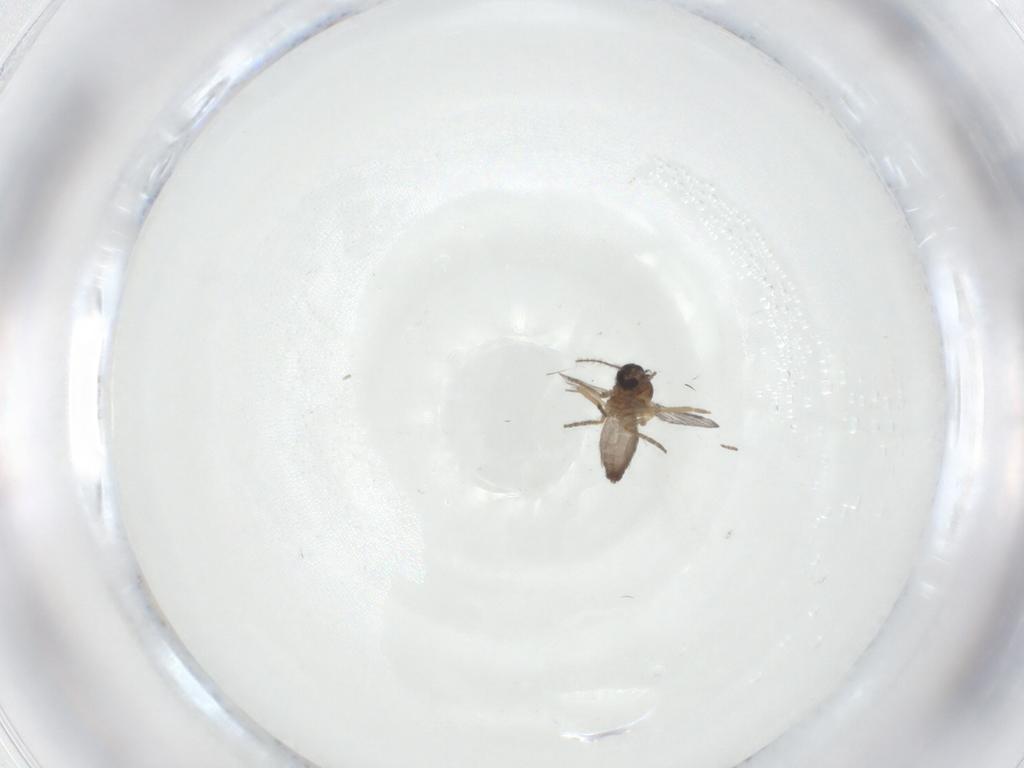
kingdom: Animalia
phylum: Arthropoda
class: Insecta
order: Diptera
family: Ceratopogonidae
